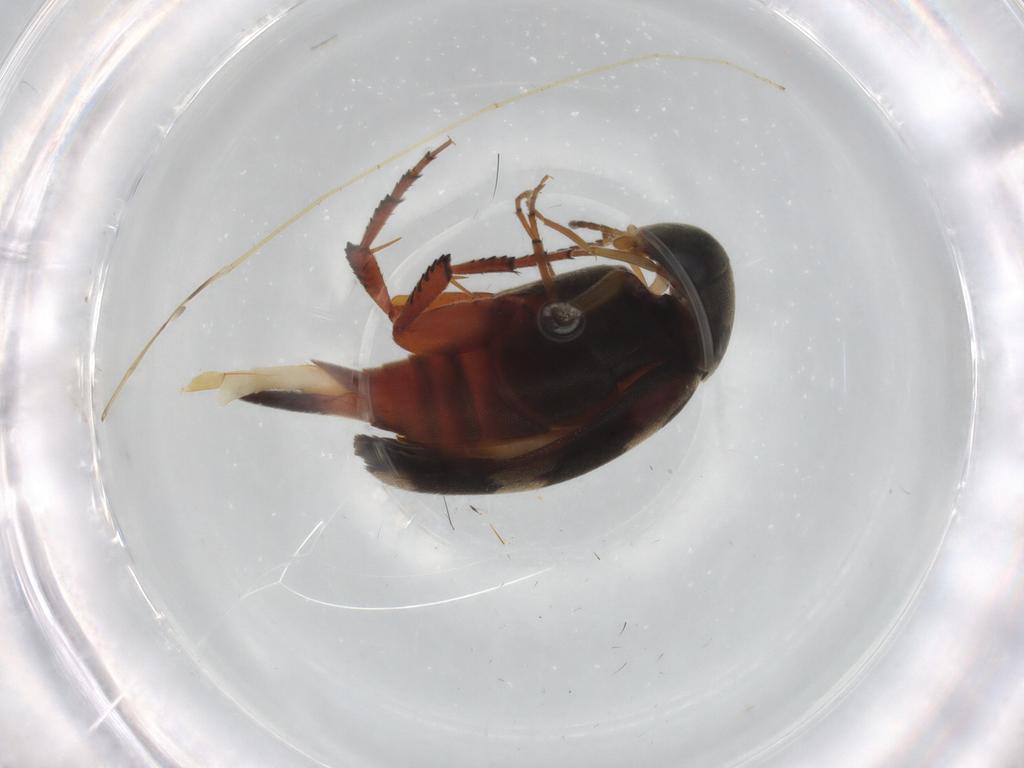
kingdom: Animalia
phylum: Arthropoda
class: Insecta
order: Coleoptera
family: Mordellidae
